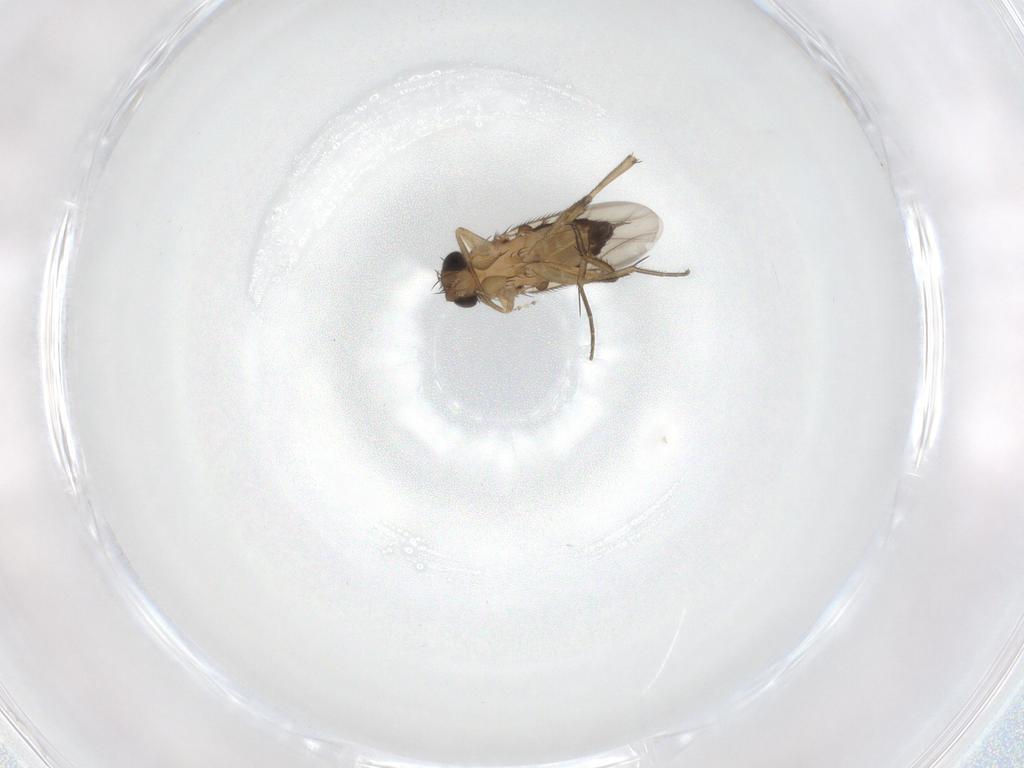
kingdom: Animalia
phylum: Arthropoda
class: Insecta
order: Diptera
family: Phoridae
